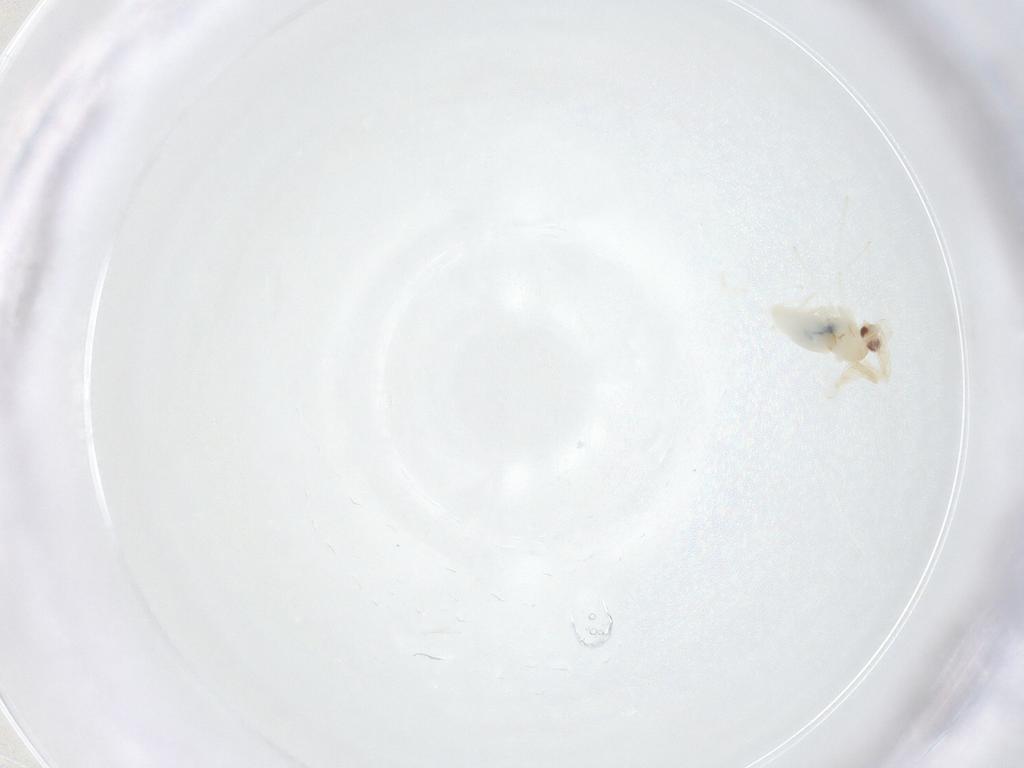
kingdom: Animalia
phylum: Arthropoda
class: Insecta
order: Diptera
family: Cecidomyiidae
